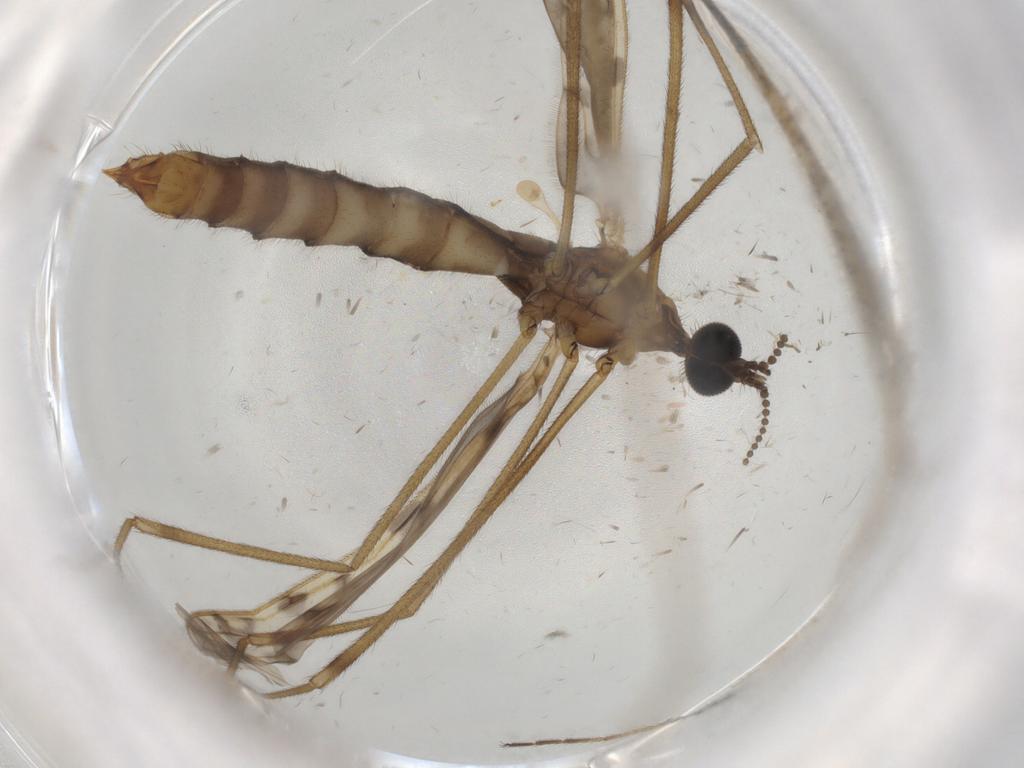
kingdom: Animalia
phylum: Arthropoda
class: Insecta
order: Diptera
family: Limoniidae
